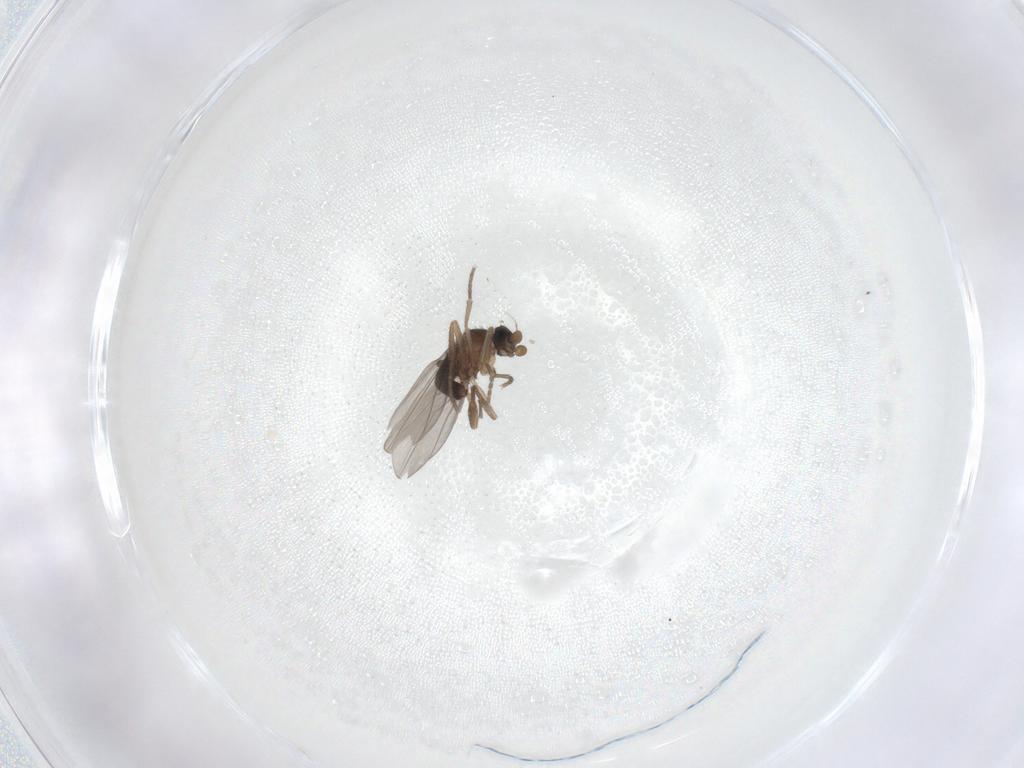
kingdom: Animalia
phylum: Arthropoda
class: Insecta
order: Diptera
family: Phoridae
